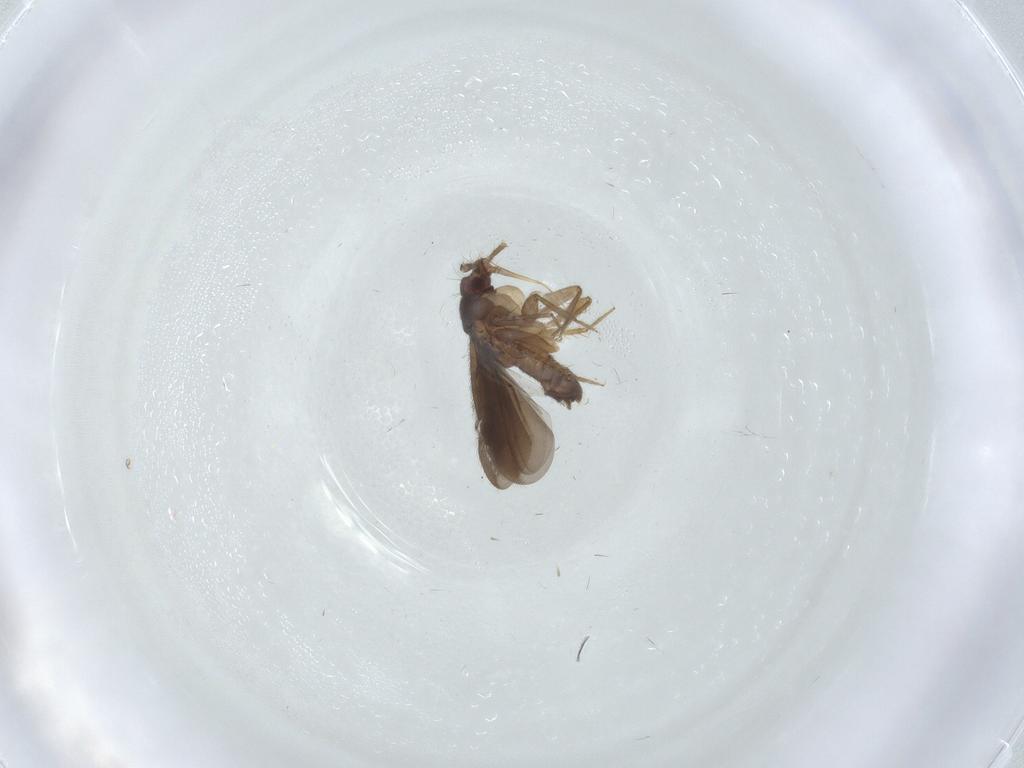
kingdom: Animalia
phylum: Arthropoda
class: Insecta
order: Hemiptera
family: Ceratocombidae
